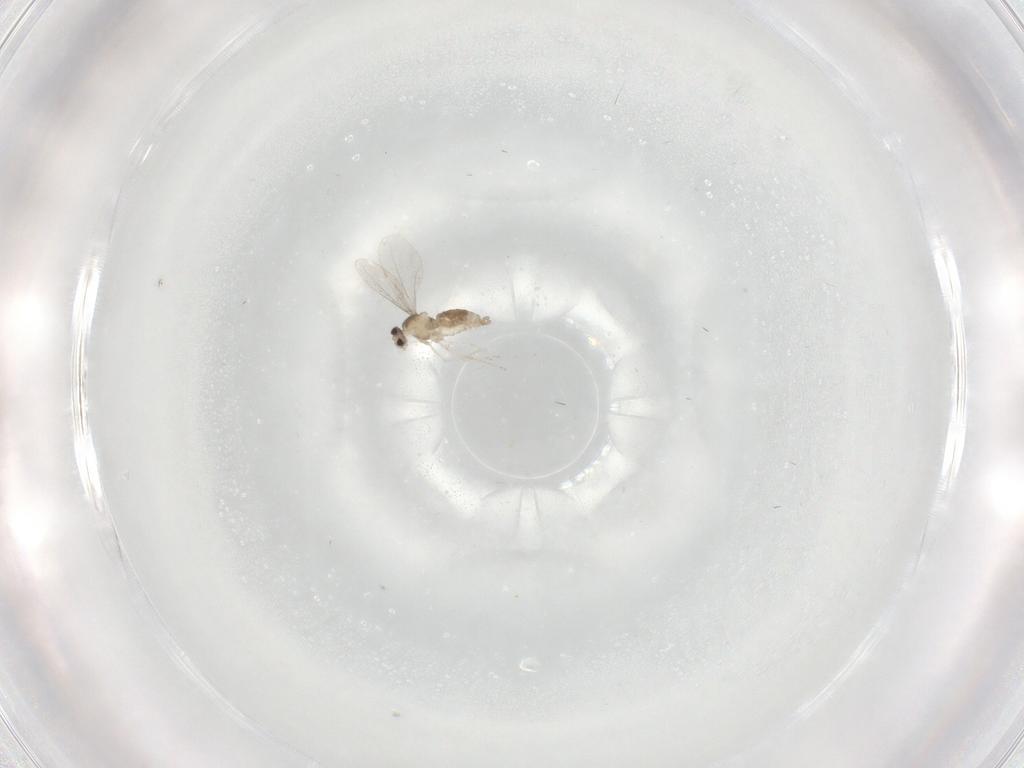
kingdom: Animalia
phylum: Arthropoda
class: Insecta
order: Diptera
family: Cecidomyiidae
